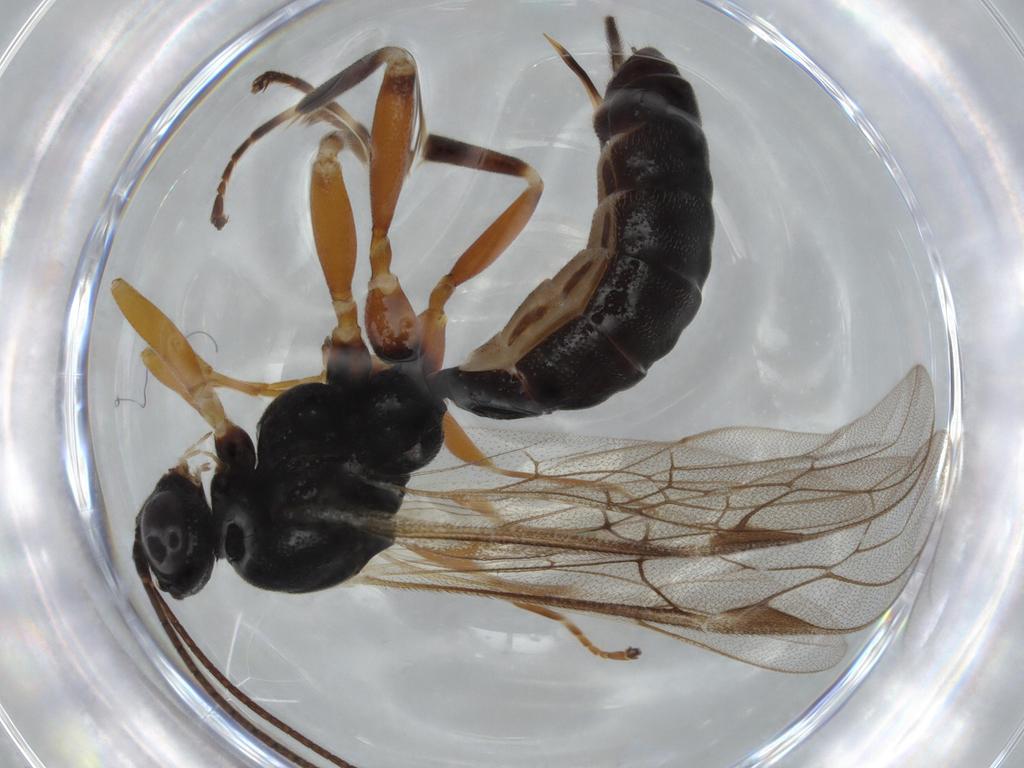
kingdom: Animalia
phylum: Arthropoda
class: Insecta
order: Hymenoptera
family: Ichneumonidae
